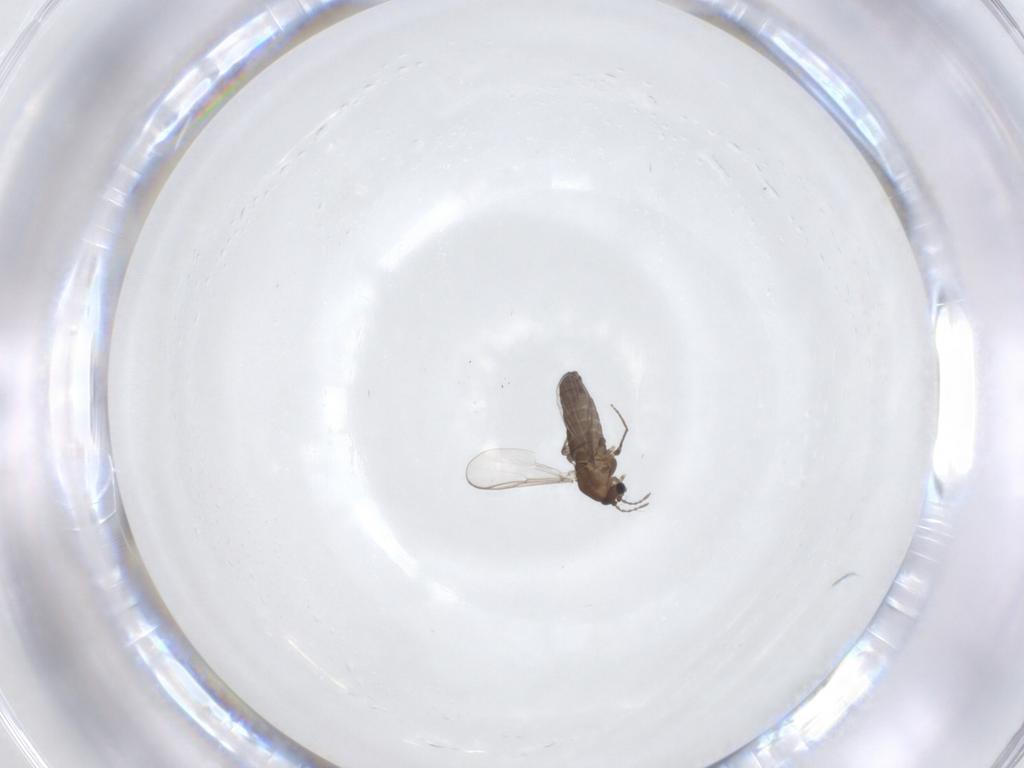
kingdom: Animalia
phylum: Arthropoda
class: Insecta
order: Diptera
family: Chironomidae
